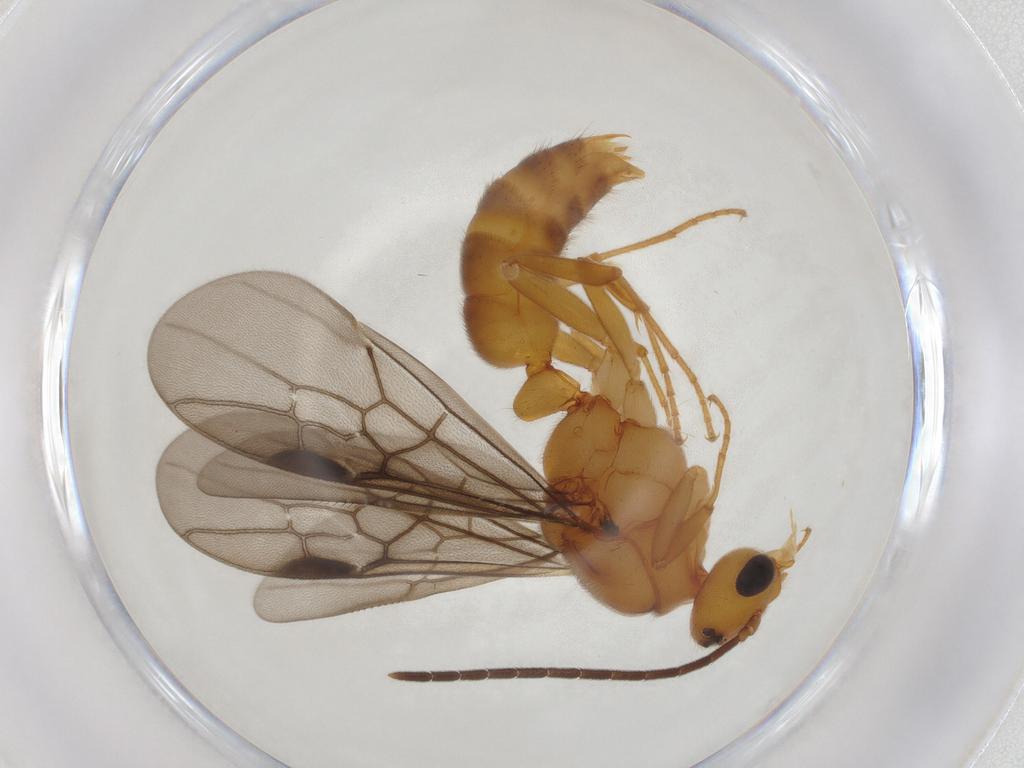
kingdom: Animalia
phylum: Arthropoda
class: Insecta
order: Hymenoptera
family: Formicidae
